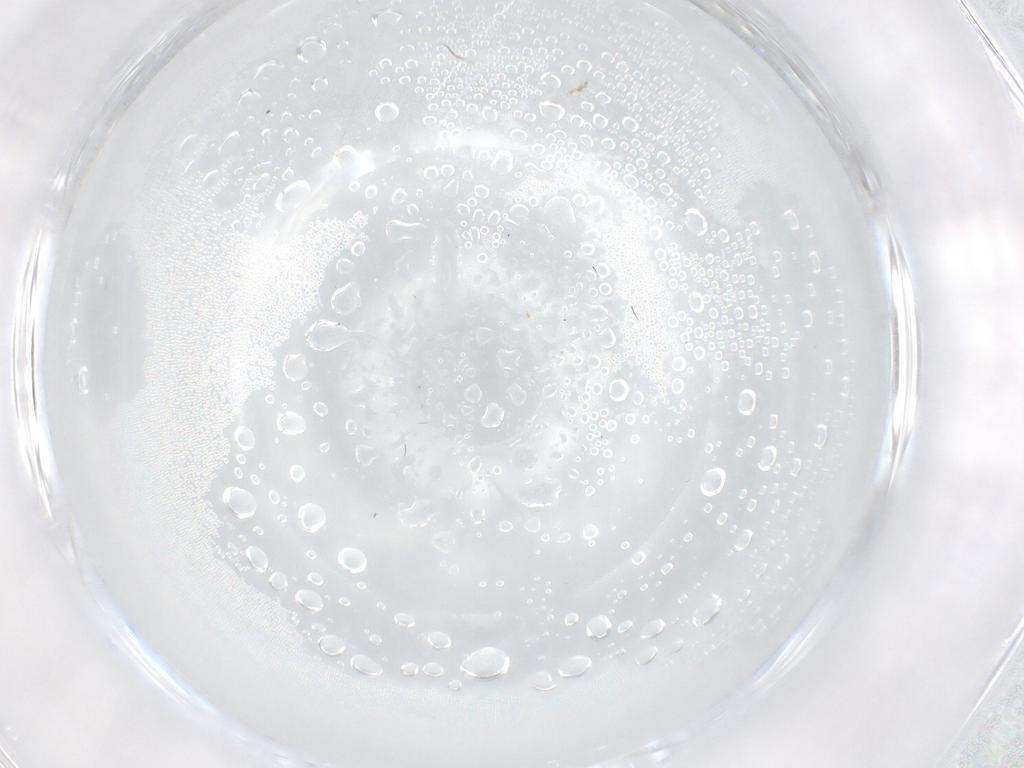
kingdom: Animalia
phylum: Arthropoda
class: Insecta
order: Psocodea
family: Lepidopsocidae
